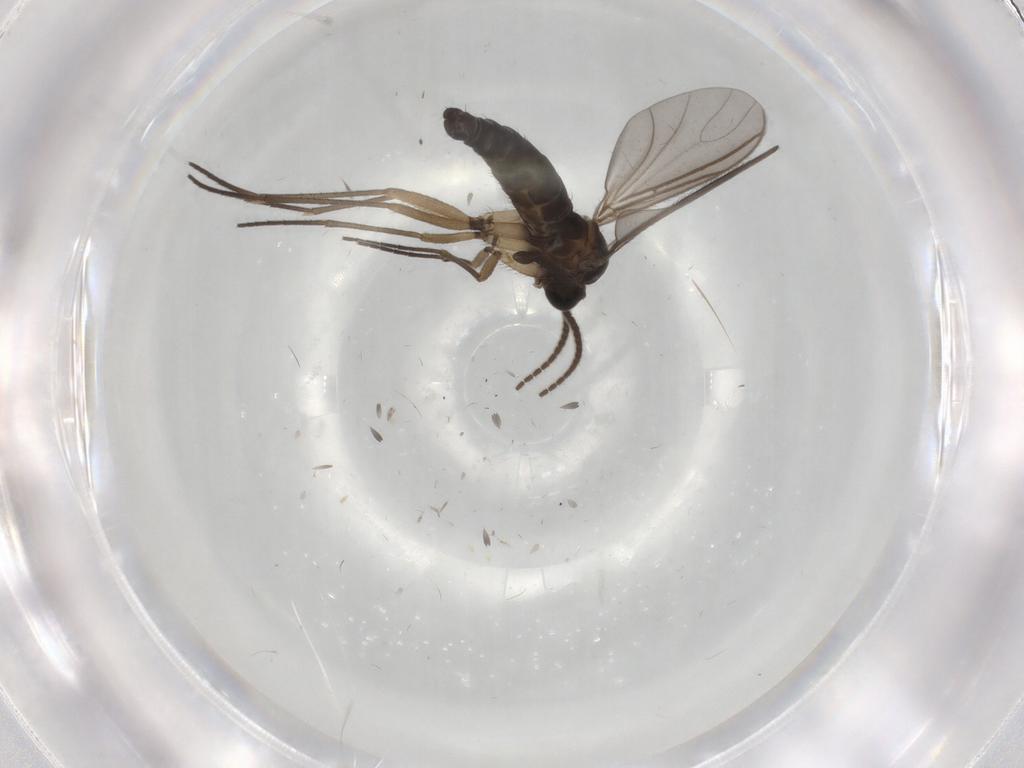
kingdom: Animalia
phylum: Arthropoda
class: Insecta
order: Diptera
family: Sciaridae
